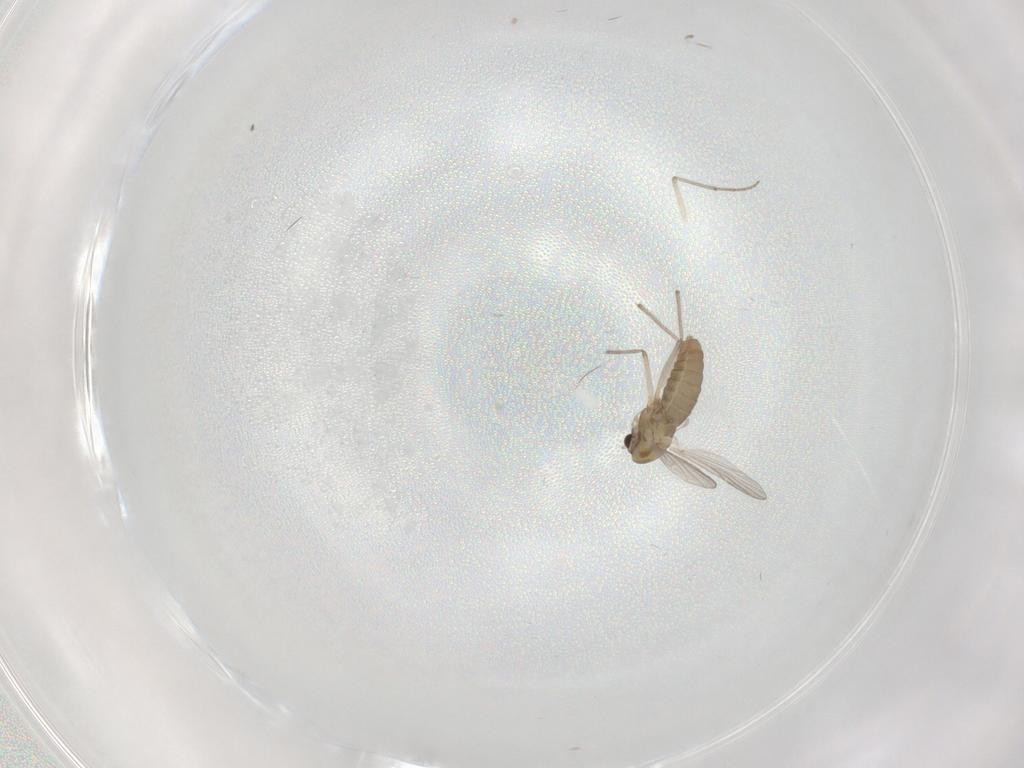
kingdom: Animalia
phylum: Arthropoda
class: Insecta
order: Diptera
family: Chironomidae
